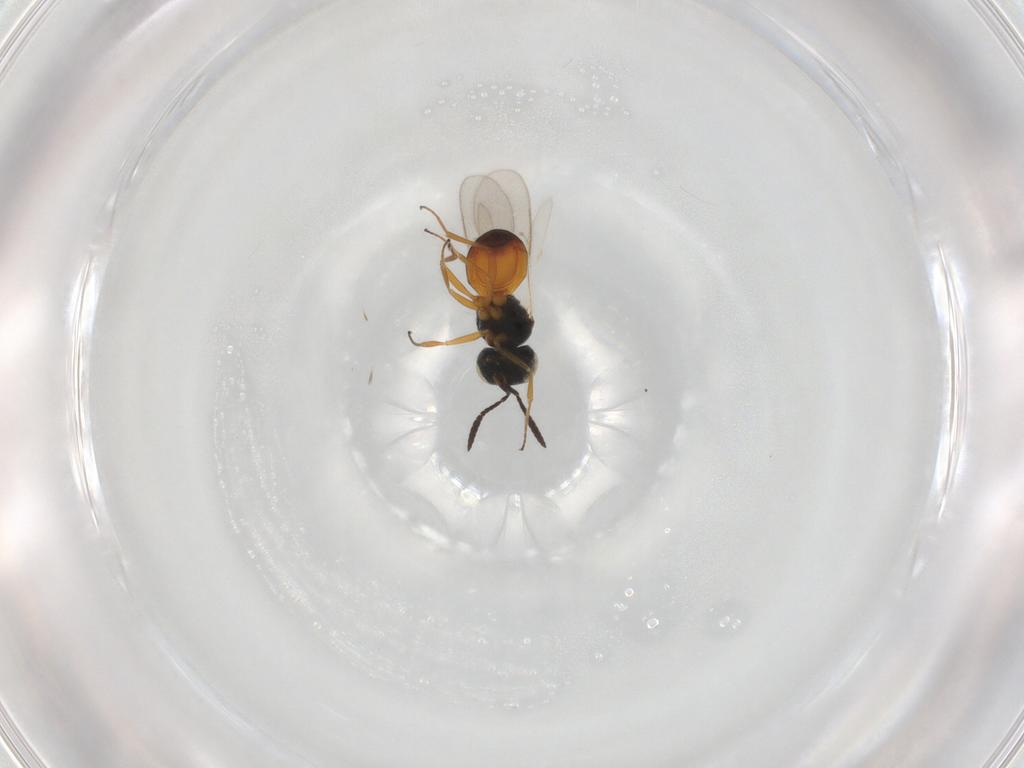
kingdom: Animalia
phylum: Arthropoda
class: Insecta
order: Hymenoptera
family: Scelionidae
